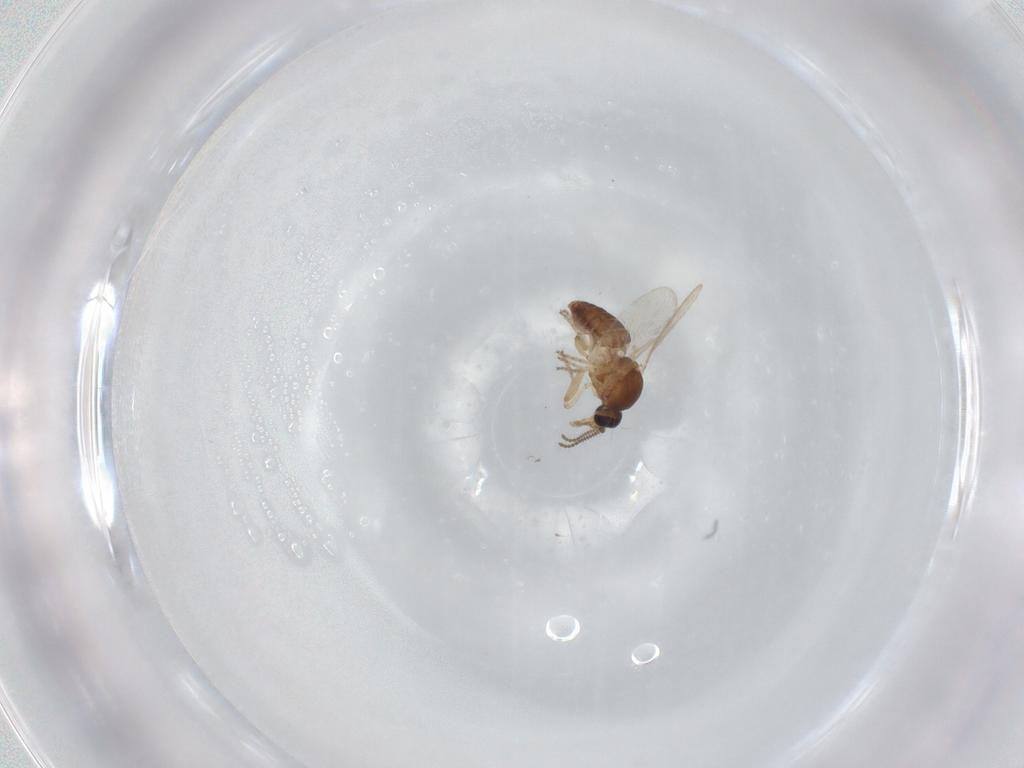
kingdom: Animalia
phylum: Arthropoda
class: Insecta
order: Diptera
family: Ceratopogonidae
